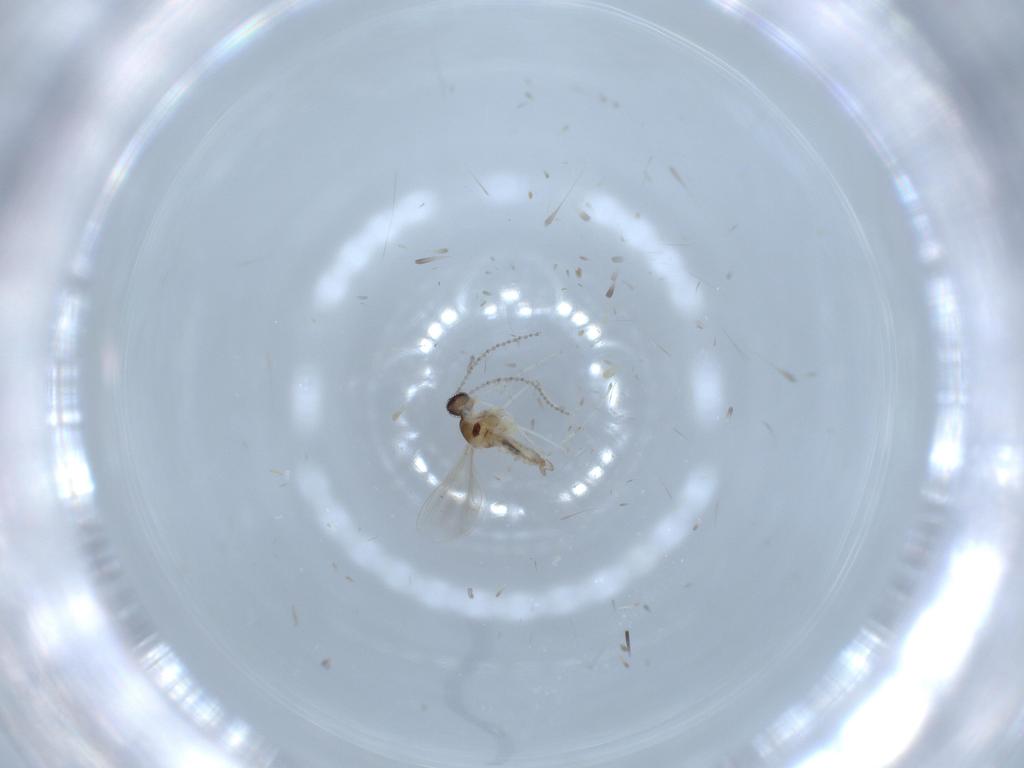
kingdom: Animalia
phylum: Arthropoda
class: Insecta
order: Diptera
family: Cecidomyiidae
